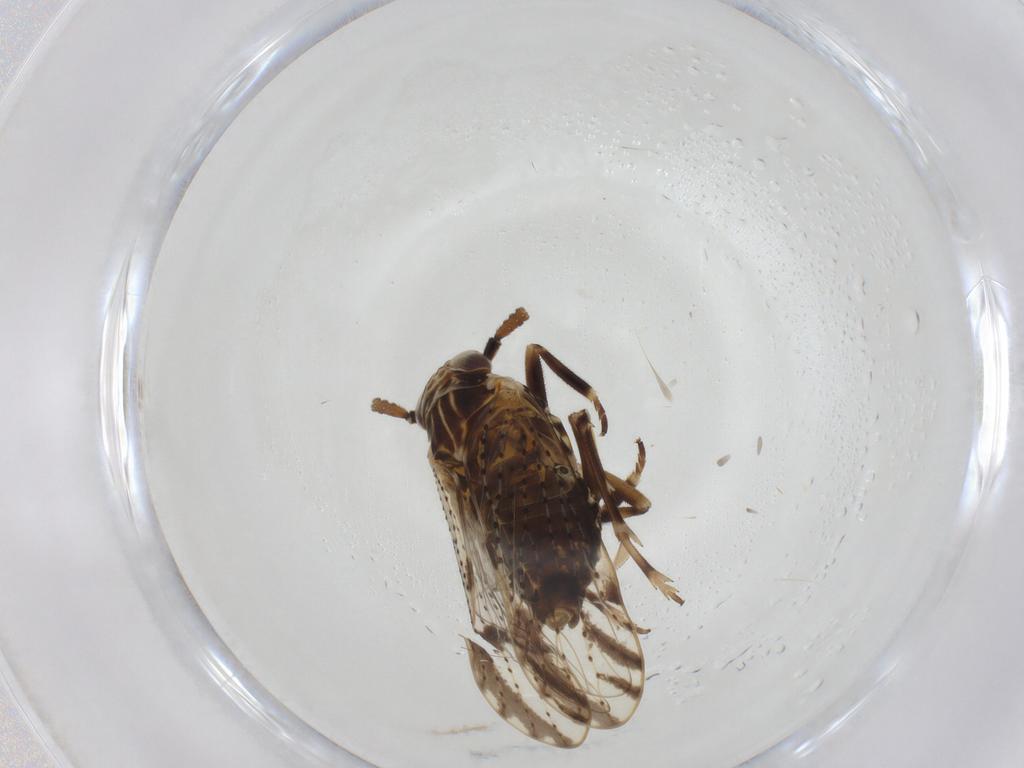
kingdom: Animalia
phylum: Arthropoda
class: Insecta
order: Hemiptera
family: Delphacidae
